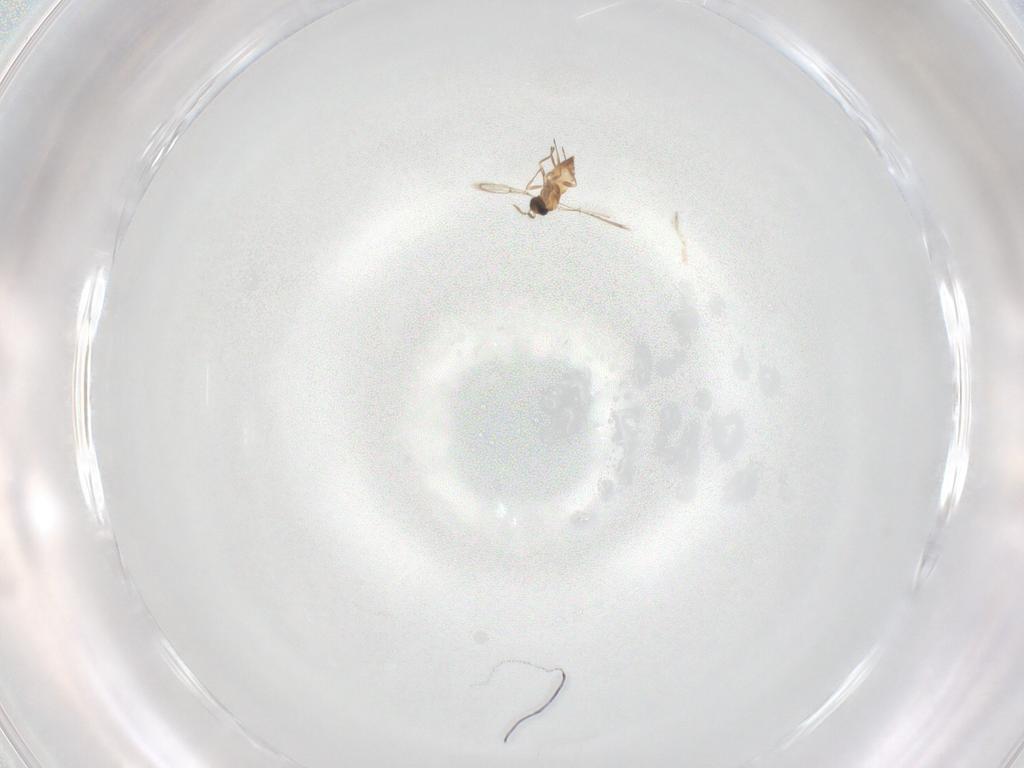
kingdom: Animalia
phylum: Arthropoda
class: Insecta
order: Hymenoptera
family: Trichogrammatidae
